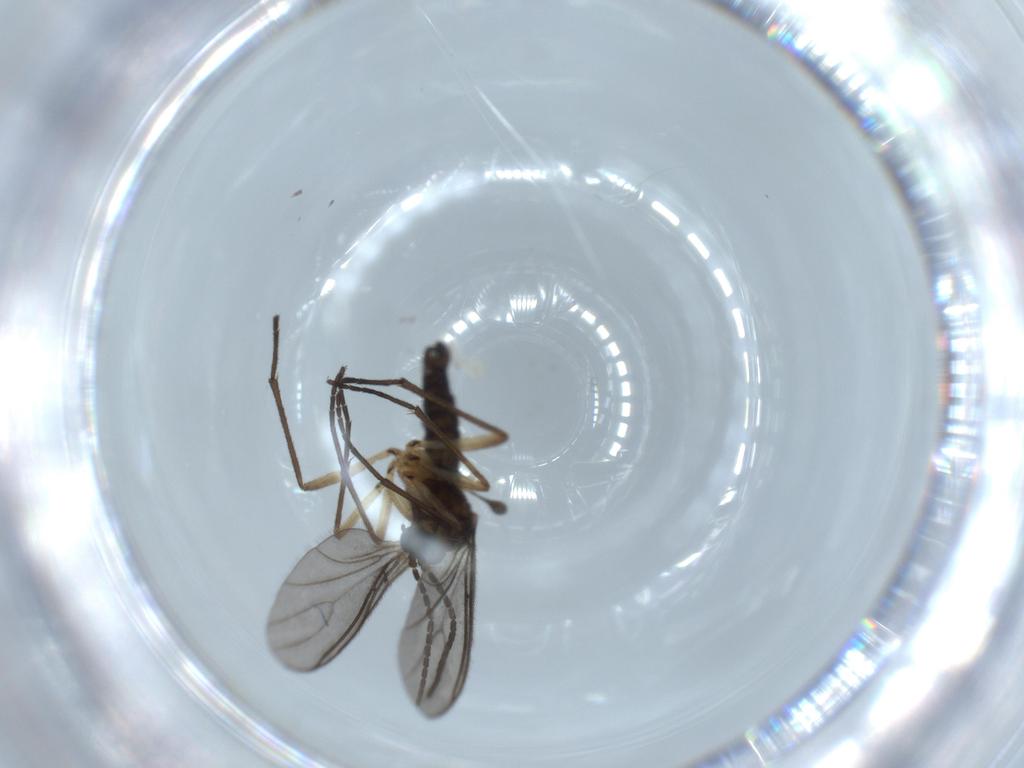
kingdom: Animalia
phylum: Arthropoda
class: Insecta
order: Diptera
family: Sciaridae
